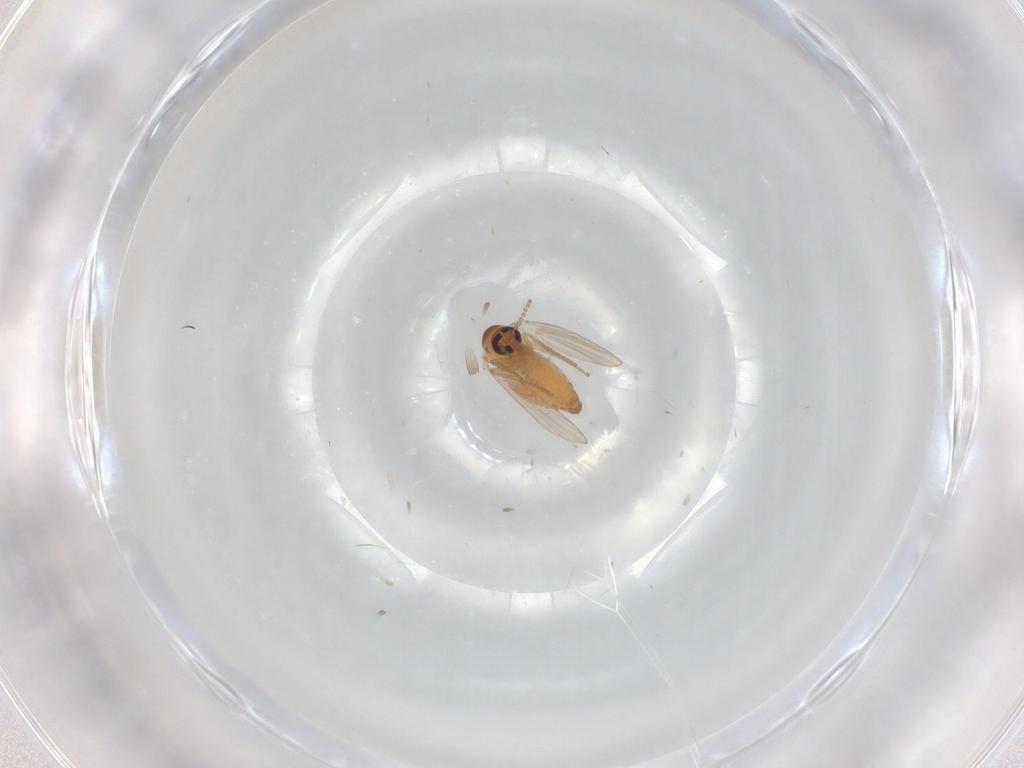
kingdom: Animalia
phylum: Arthropoda
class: Insecta
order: Diptera
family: Psychodidae
